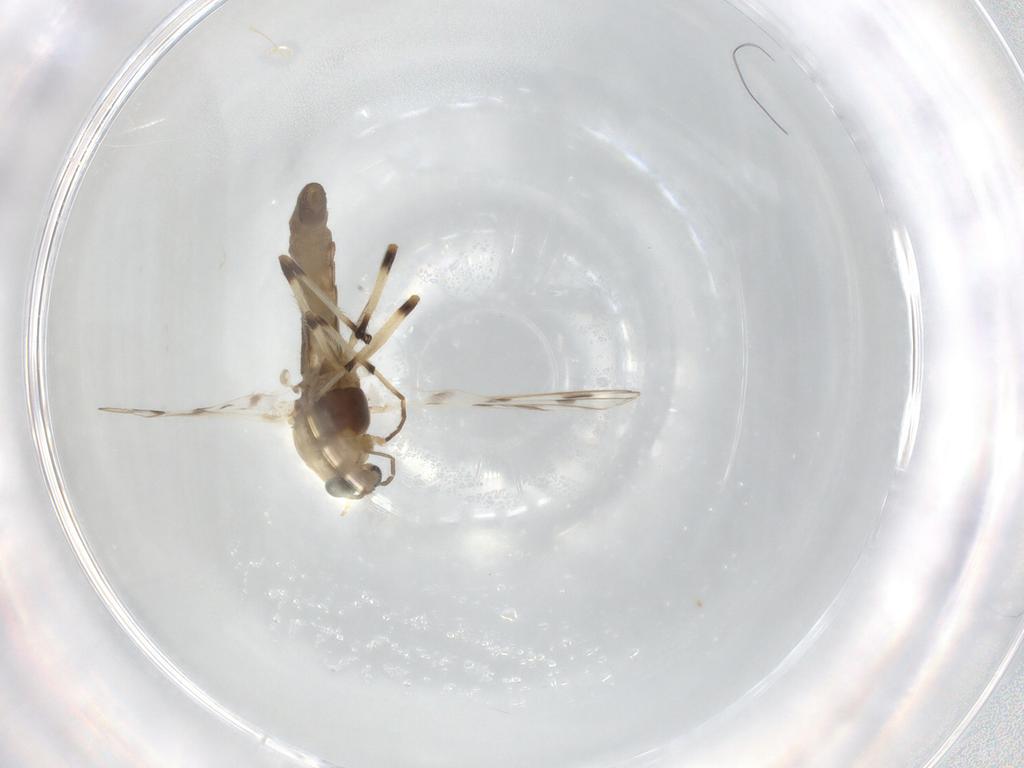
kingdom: Animalia
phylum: Arthropoda
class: Insecta
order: Diptera
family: Chironomidae
